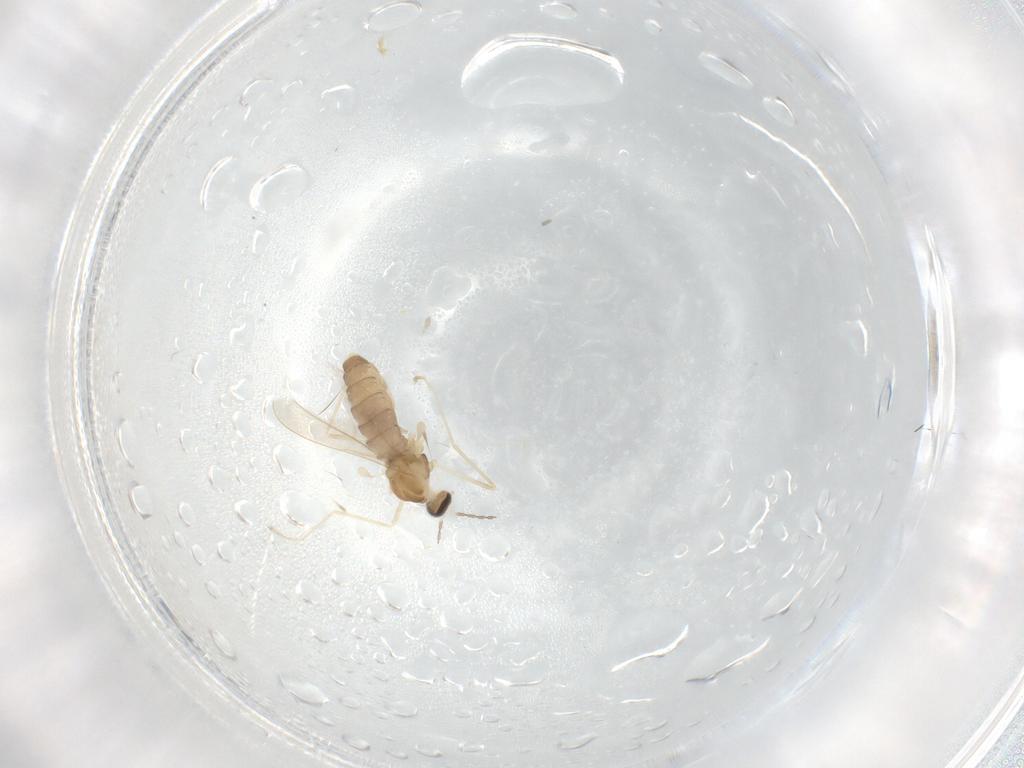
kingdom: Animalia
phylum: Arthropoda
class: Insecta
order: Diptera
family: Cecidomyiidae
